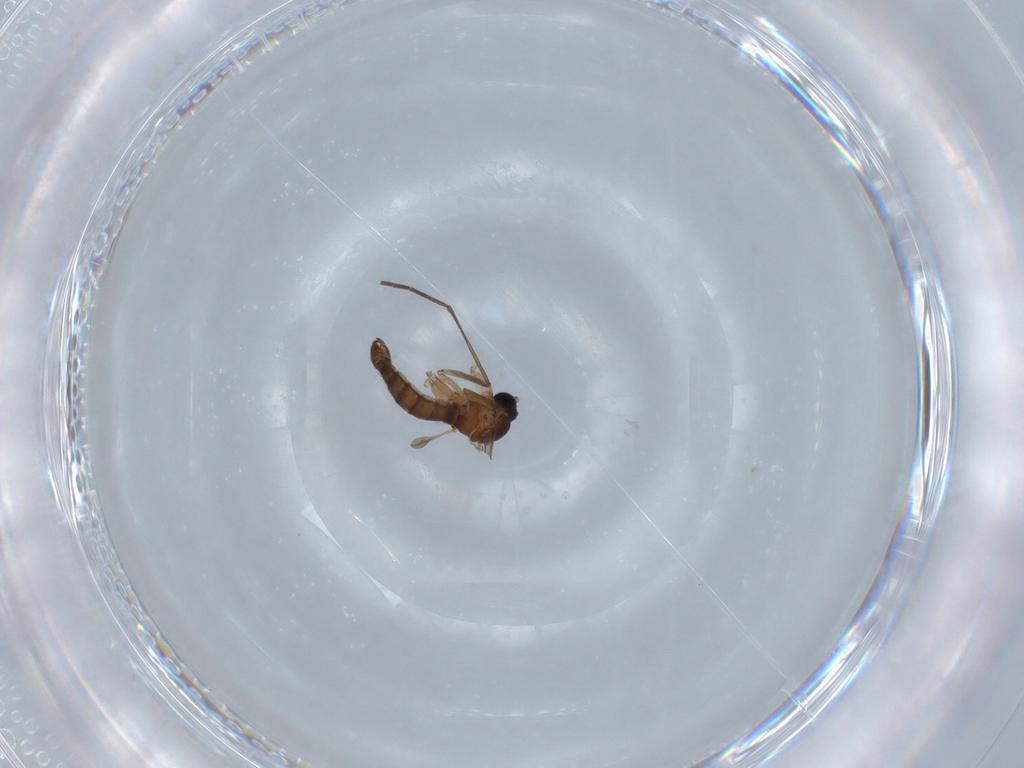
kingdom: Animalia
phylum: Arthropoda
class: Insecta
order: Diptera
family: Sciaridae
